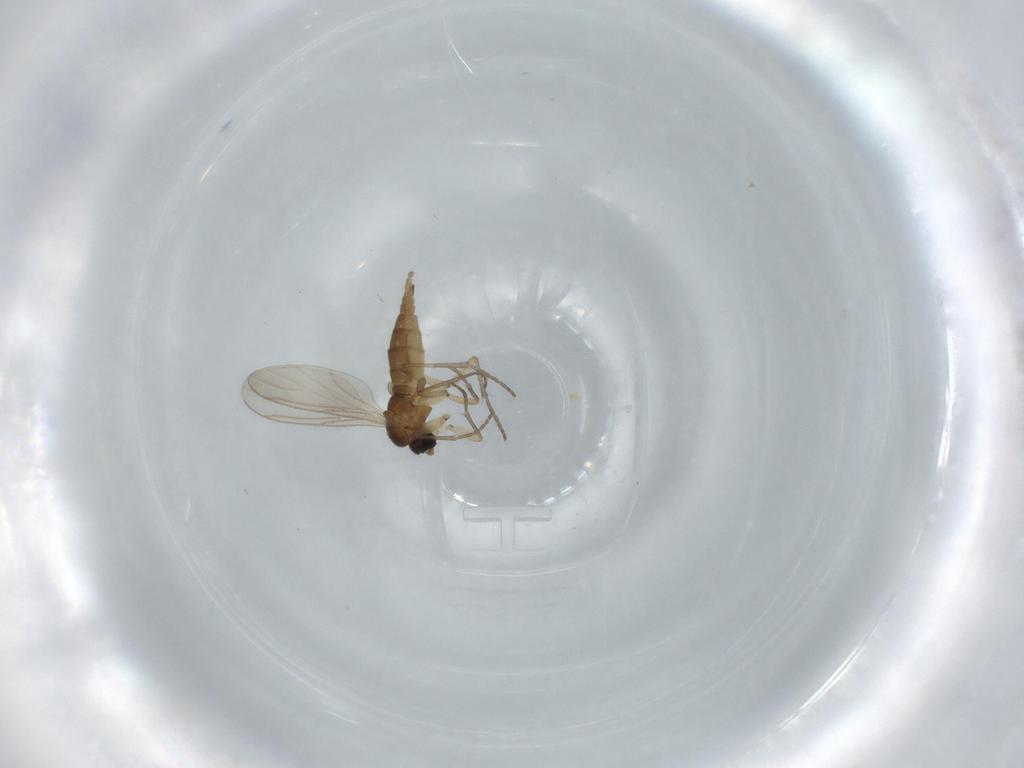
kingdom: Animalia
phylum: Arthropoda
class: Insecta
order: Diptera
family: Sciaridae
